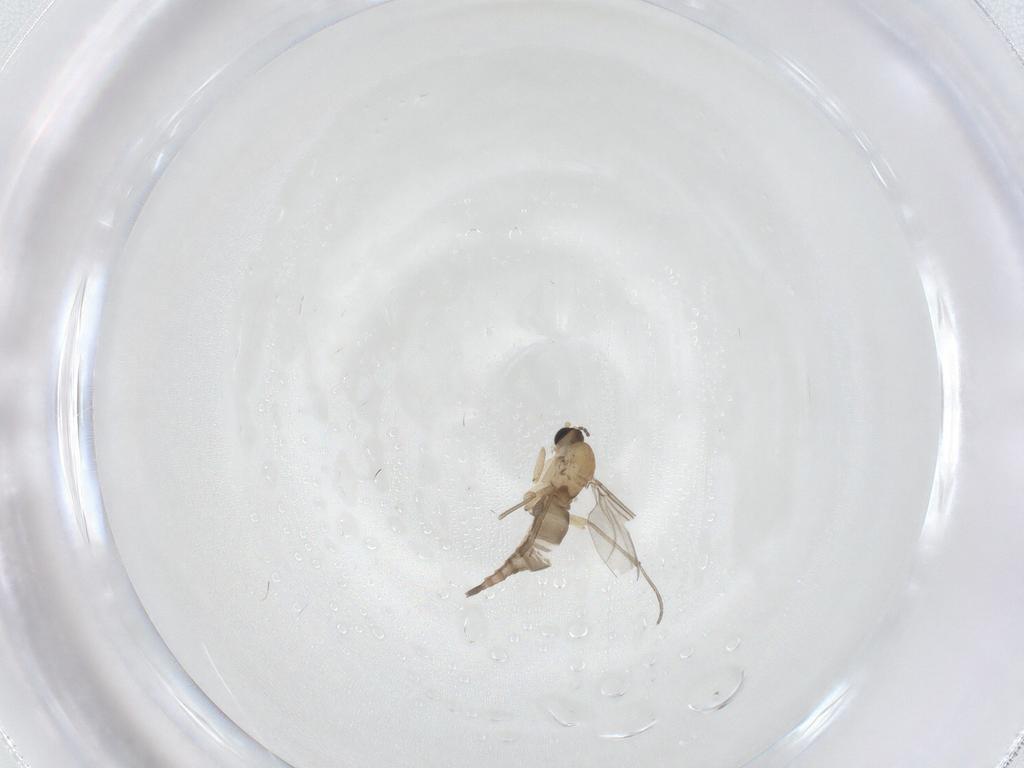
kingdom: Animalia
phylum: Arthropoda
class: Insecta
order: Diptera
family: Sciaridae
